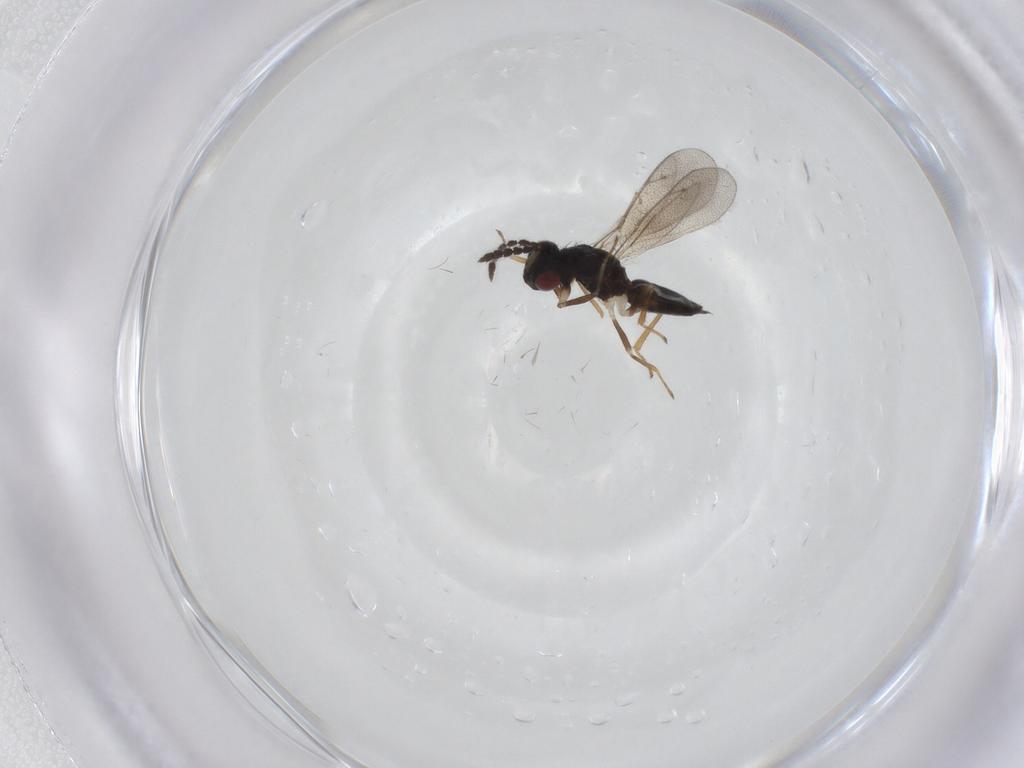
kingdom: Animalia
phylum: Arthropoda
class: Insecta
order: Hymenoptera
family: Eulophidae
